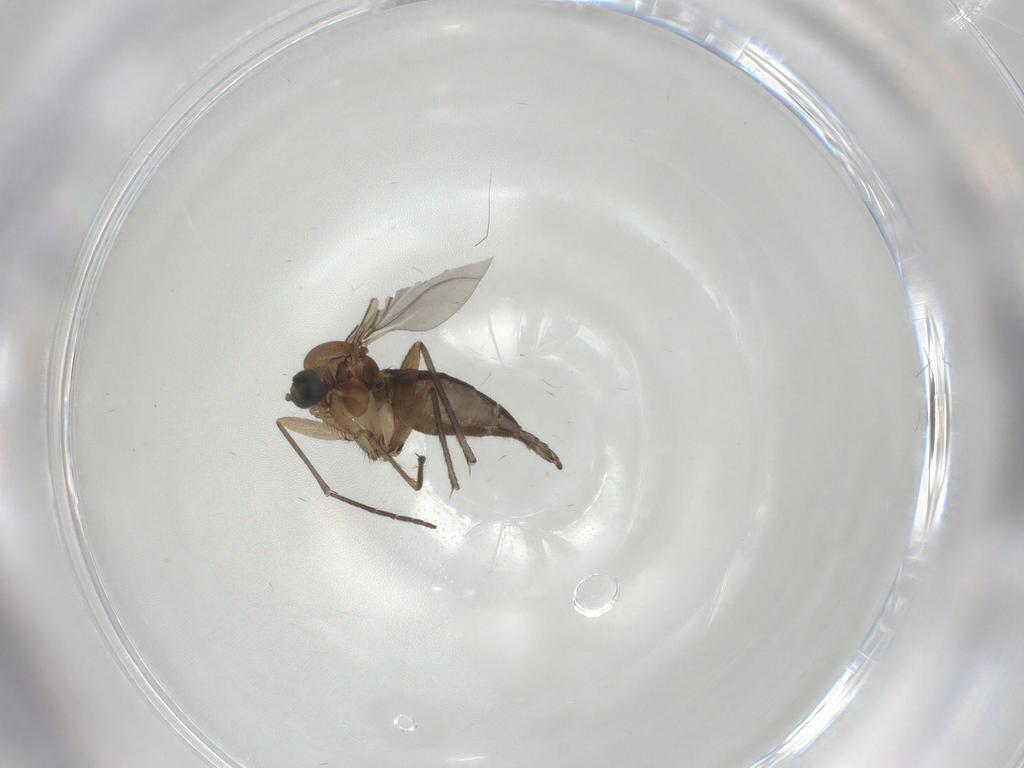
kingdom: Animalia
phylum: Arthropoda
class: Insecta
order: Diptera
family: Sciaridae
